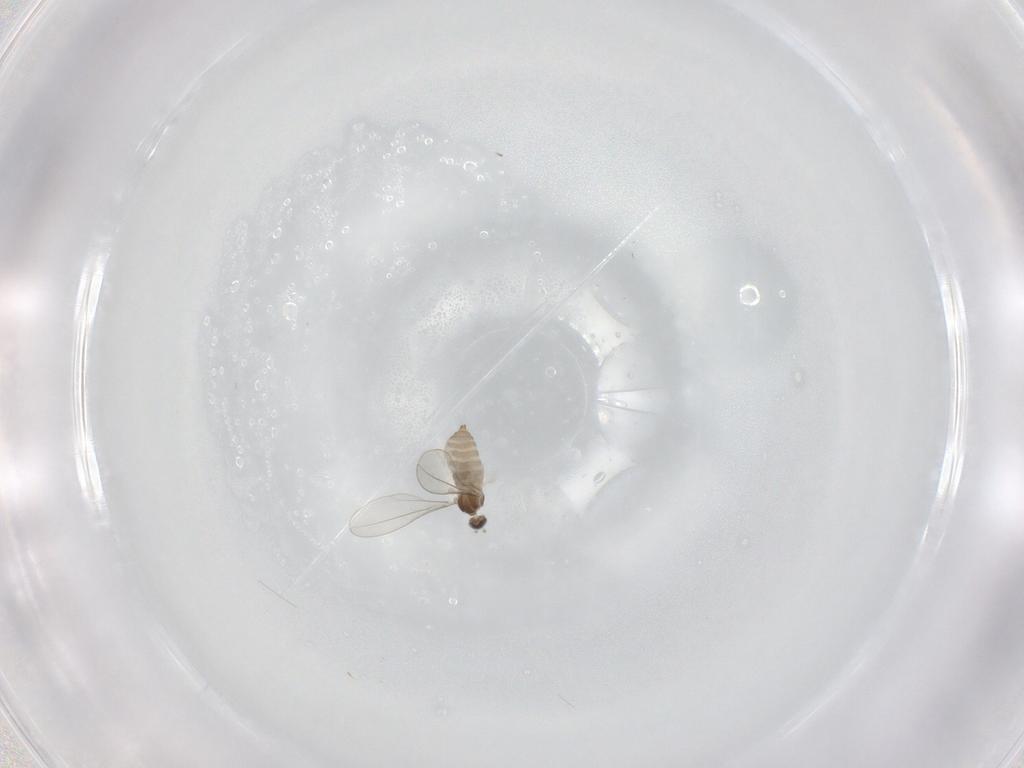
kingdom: Animalia
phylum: Arthropoda
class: Insecta
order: Diptera
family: Cecidomyiidae
